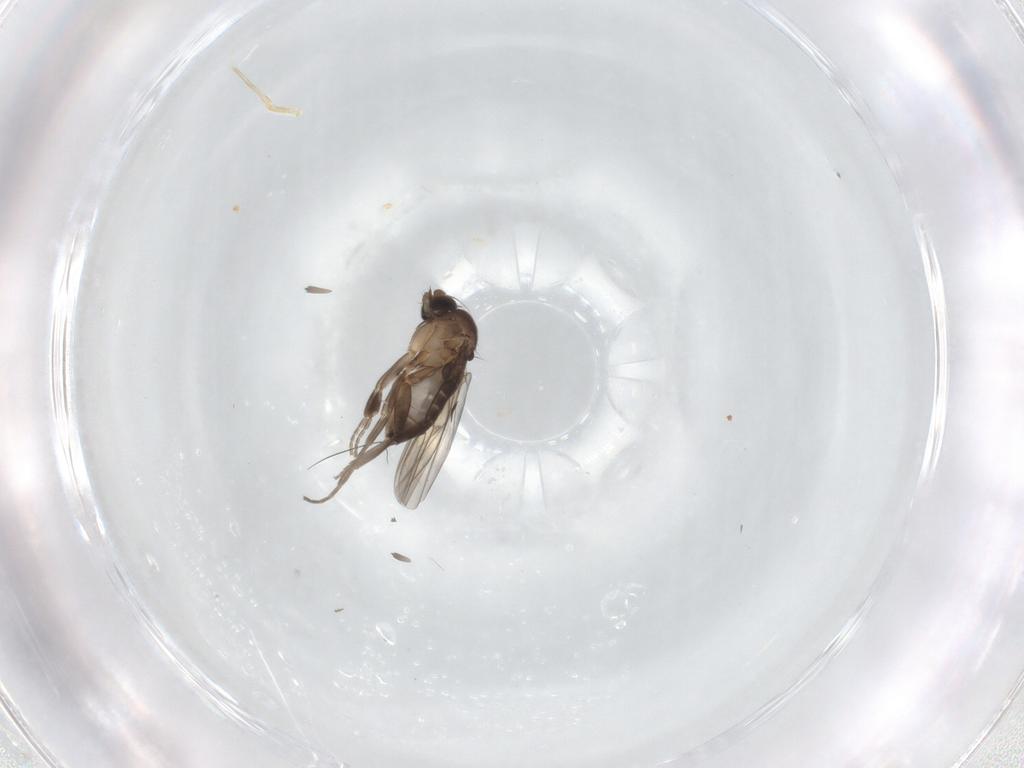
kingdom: Animalia
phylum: Arthropoda
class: Insecta
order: Diptera
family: Phoridae
